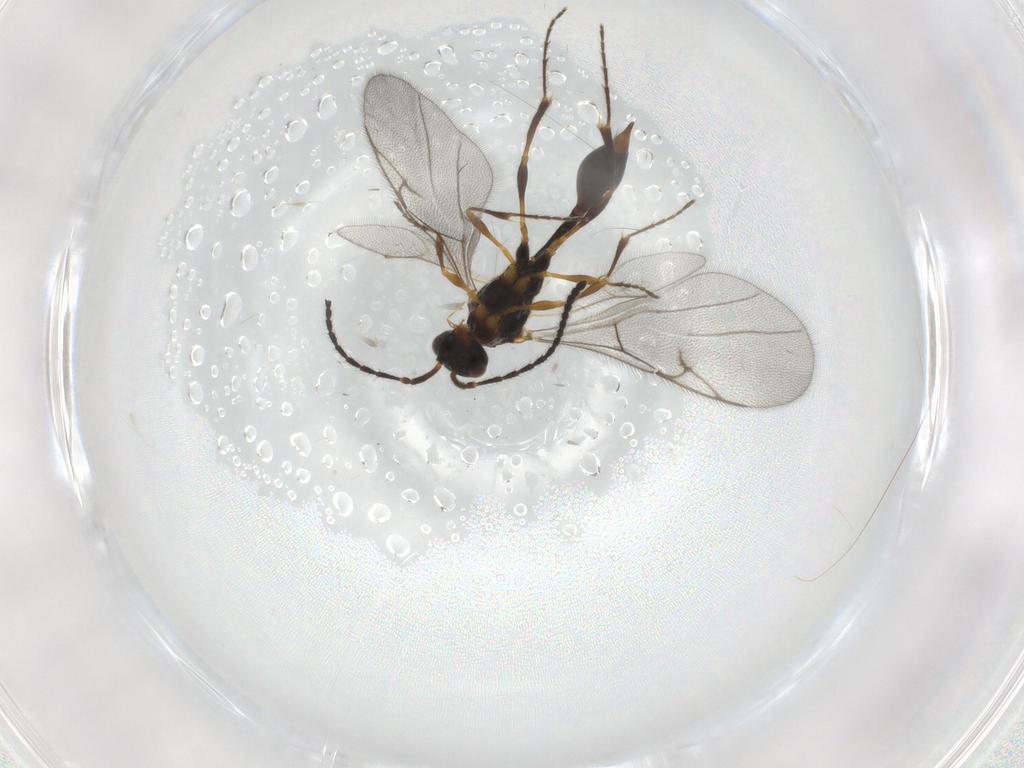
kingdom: Animalia
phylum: Arthropoda
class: Insecta
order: Hymenoptera
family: Diapriidae
